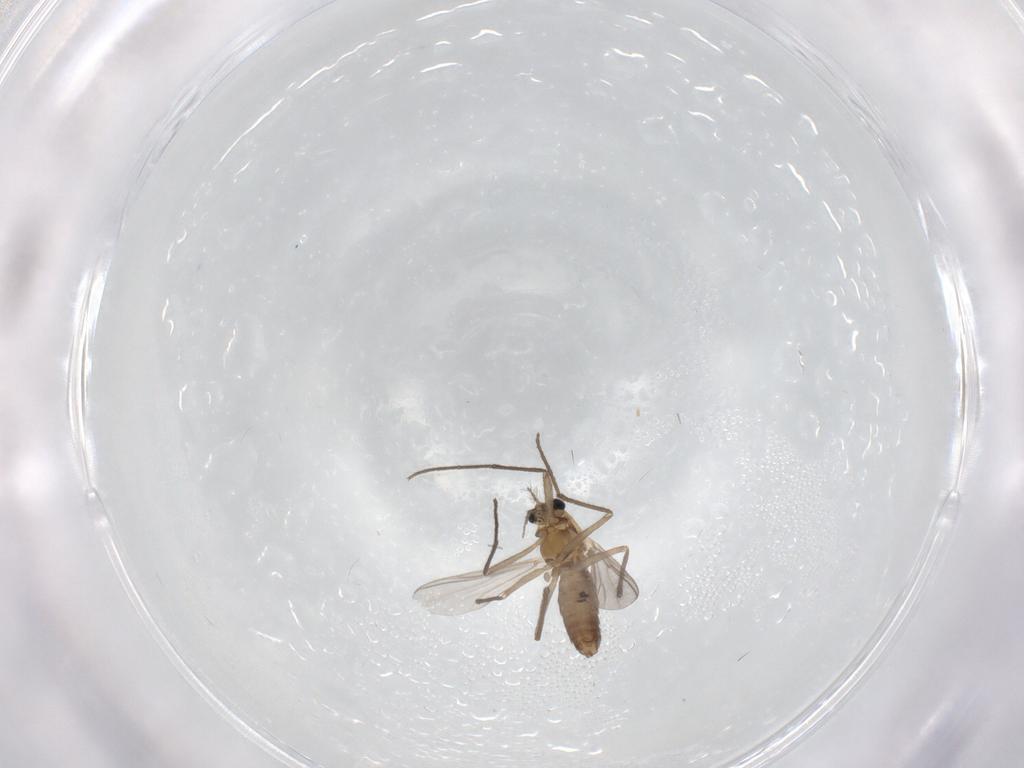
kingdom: Animalia
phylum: Arthropoda
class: Insecta
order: Diptera
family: Chironomidae
